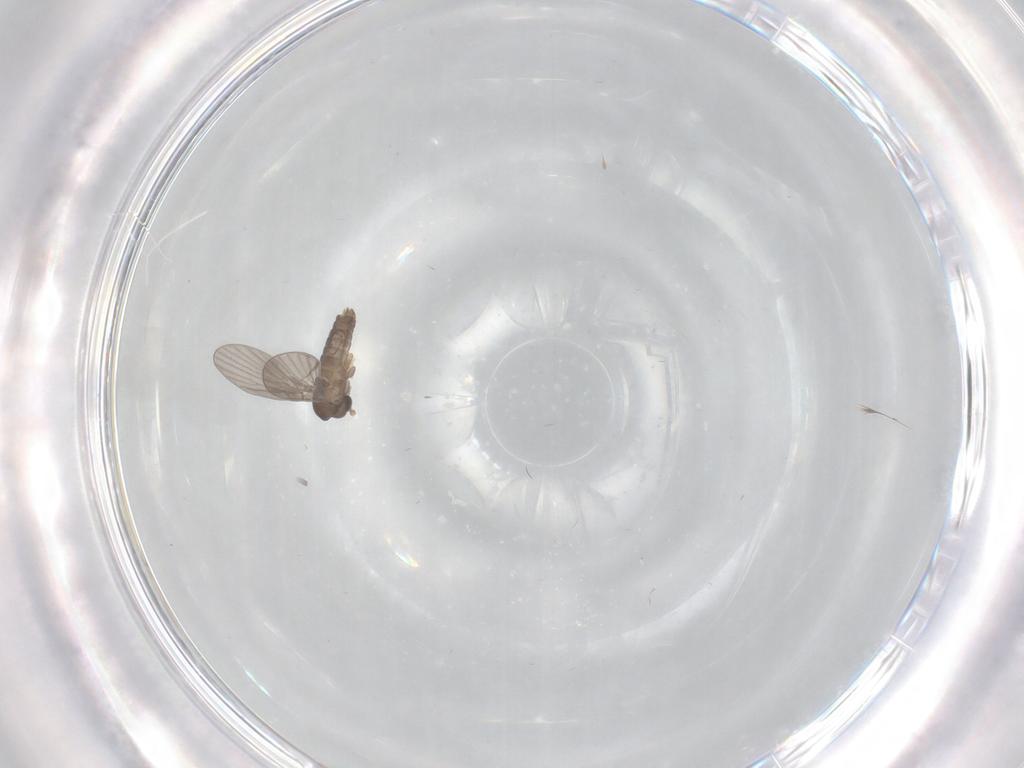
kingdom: Animalia
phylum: Arthropoda
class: Insecta
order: Diptera
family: Psychodidae
